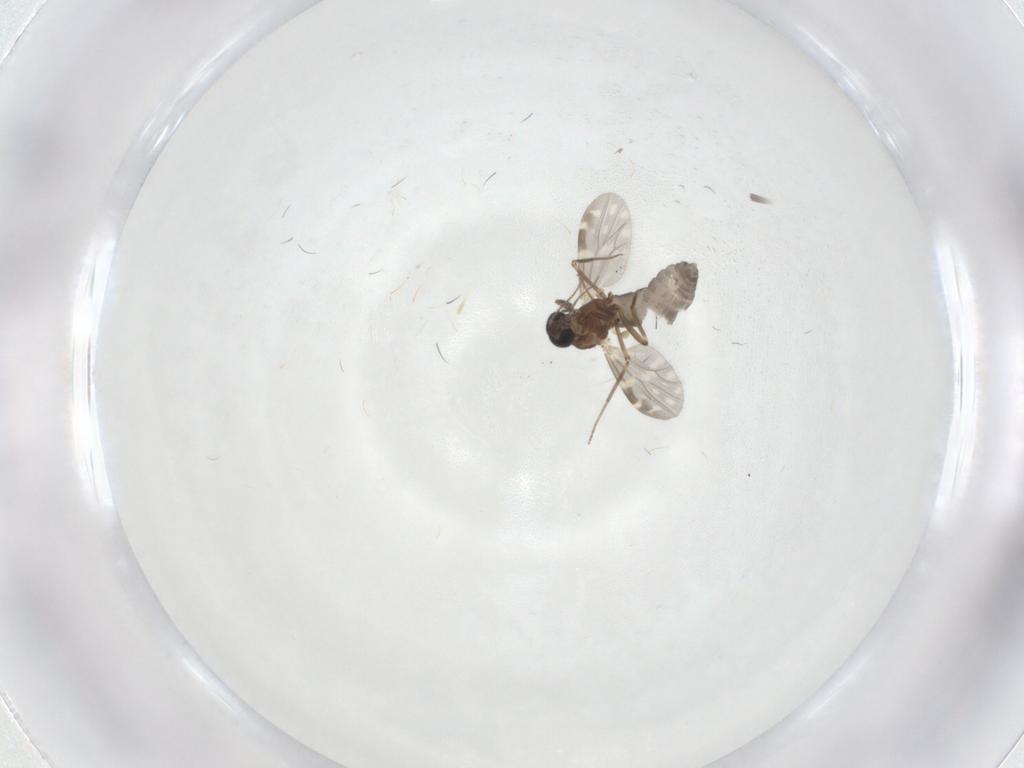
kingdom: Animalia
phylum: Arthropoda
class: Insecta
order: Diptera
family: Ceratopogonidae
